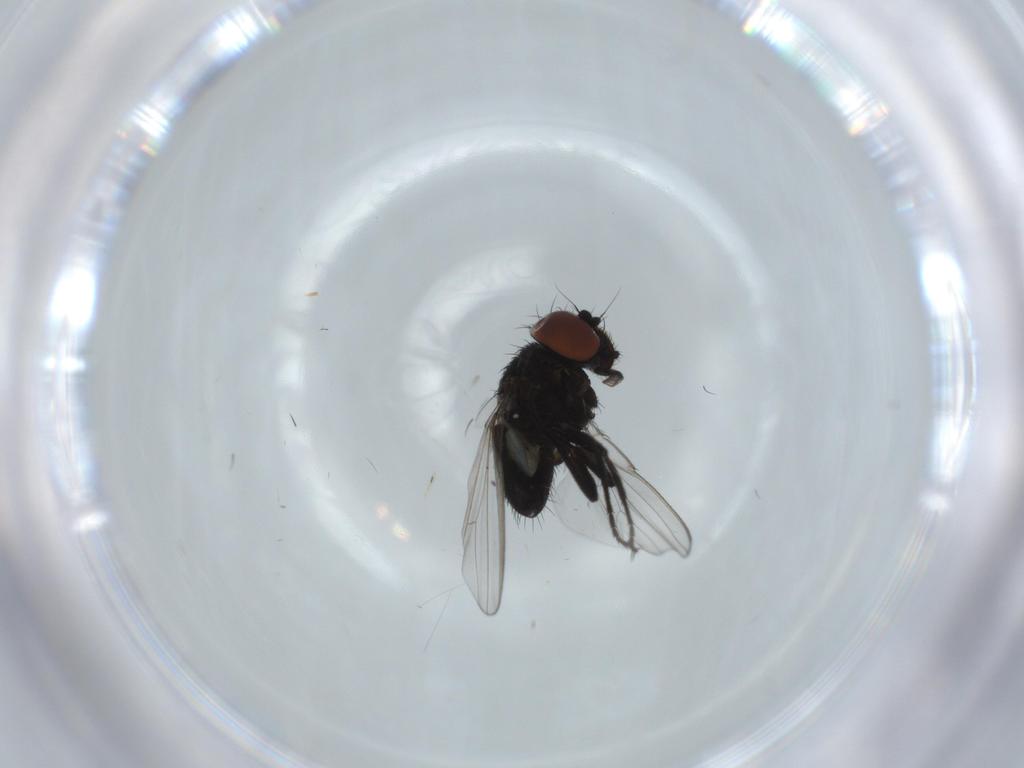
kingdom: Animalia
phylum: Arthropoda
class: Insecta
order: Diptera
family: Milichiidae
